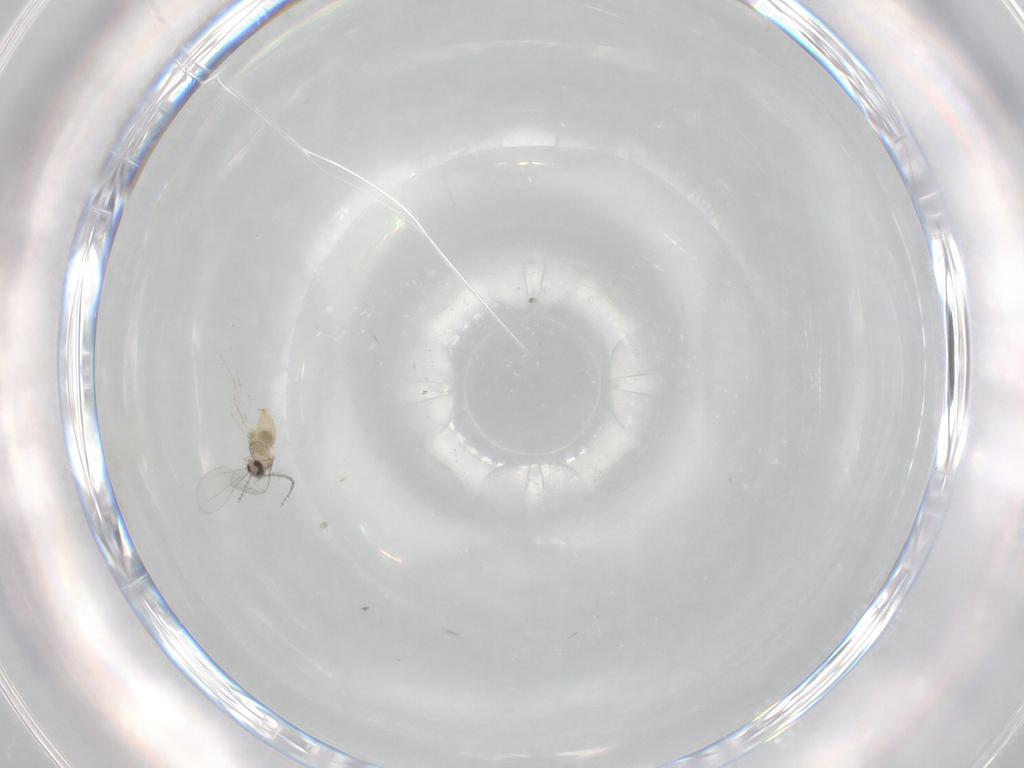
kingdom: Animalia
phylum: Arthropoda
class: Insecta
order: Diptera
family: Cecidomyiidae
